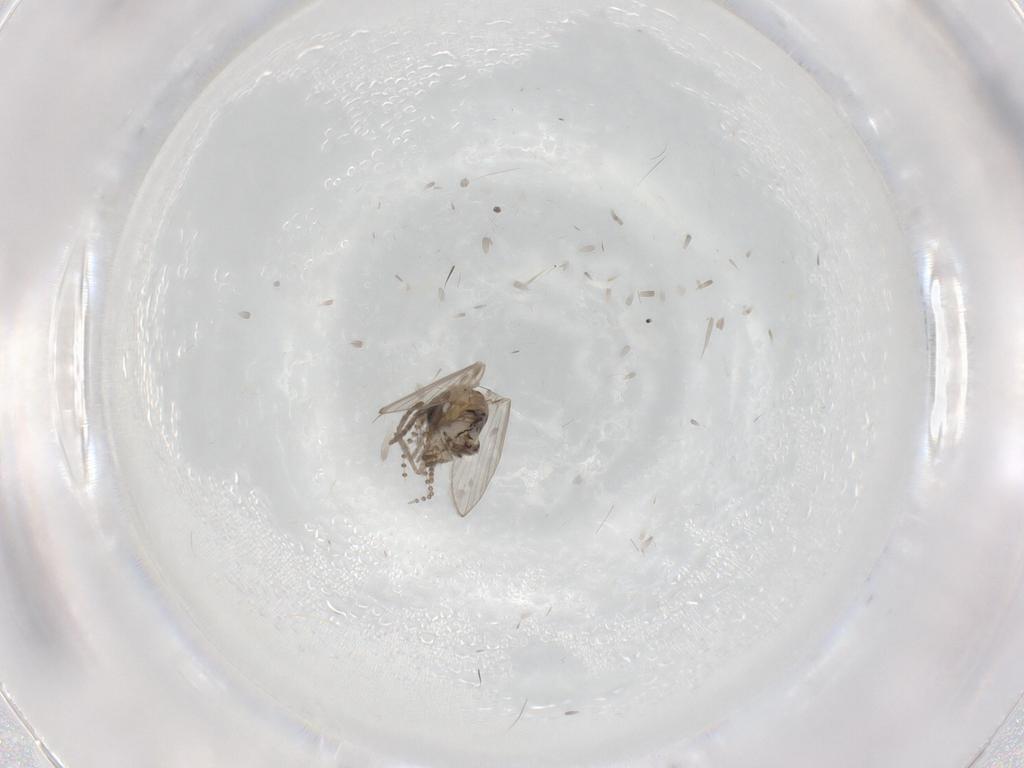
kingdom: Animalia
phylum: Arthropoda
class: Insecta
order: Diptera
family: Psychodidae
